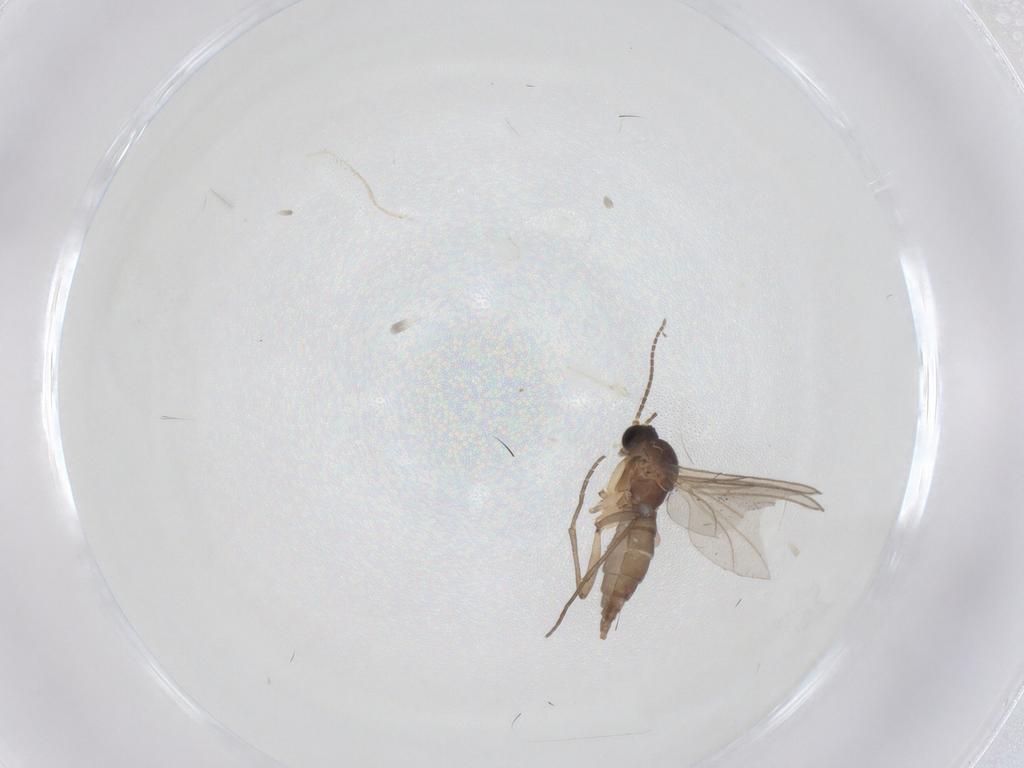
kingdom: Animalia
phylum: Arthropoda
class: Insecta
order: Diptera
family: Sciaridae
